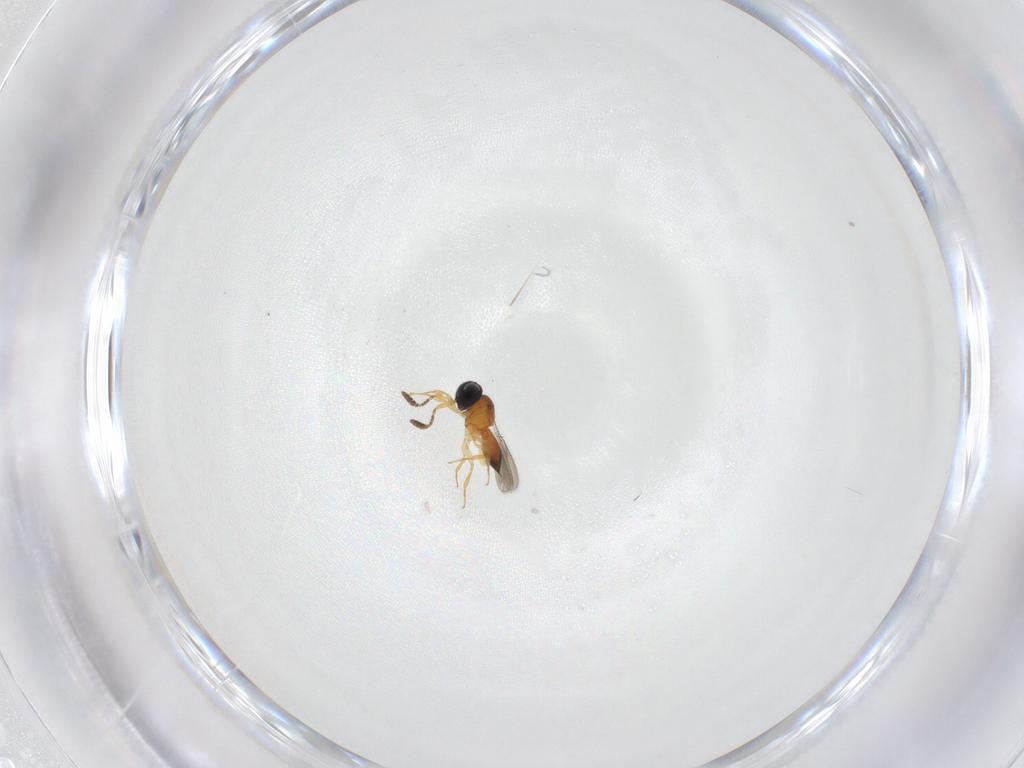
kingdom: Animalia
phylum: Arthropoda
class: Insecta
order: Hymenoptera
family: Scelionidae
